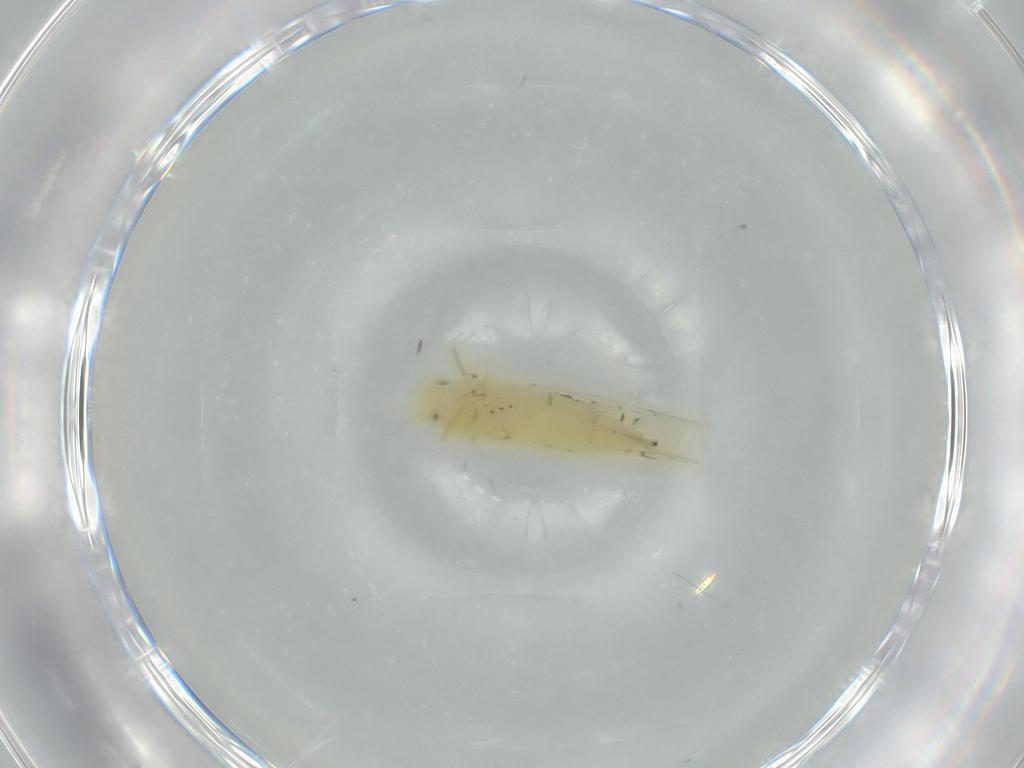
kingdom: Animalia
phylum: Arthropoda
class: Insecta
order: Hemiptera
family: Cicadellidae
